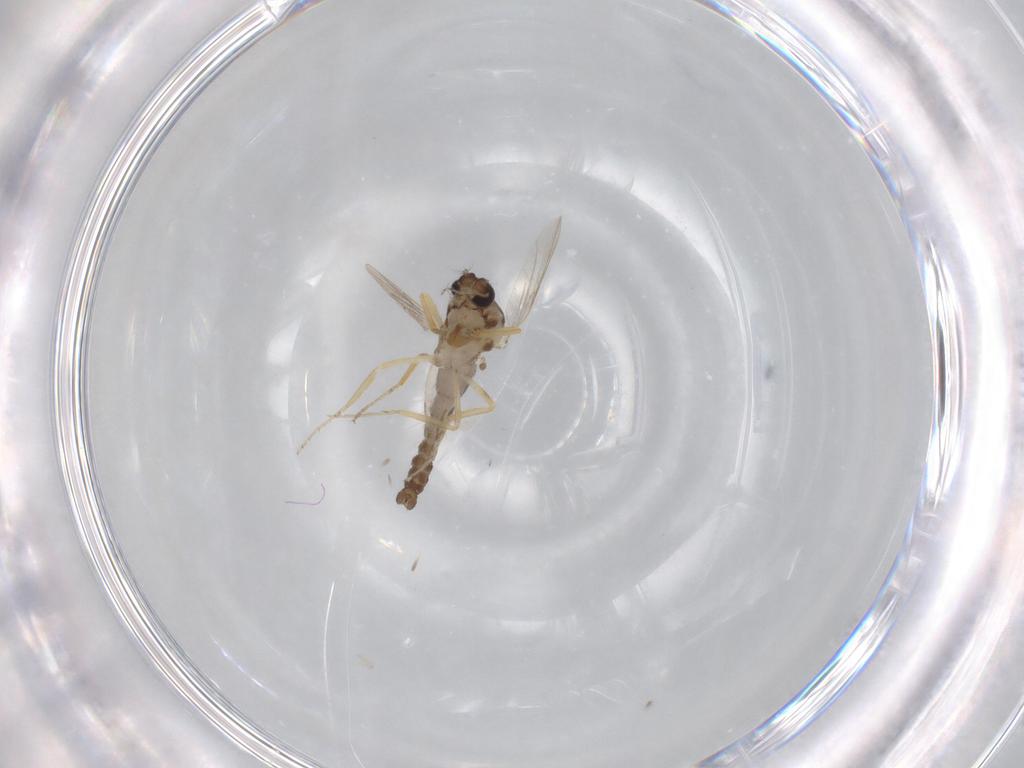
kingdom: Animalia
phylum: Arthropoda
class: Insecta
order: Diptera
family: Ceratopogonidae
